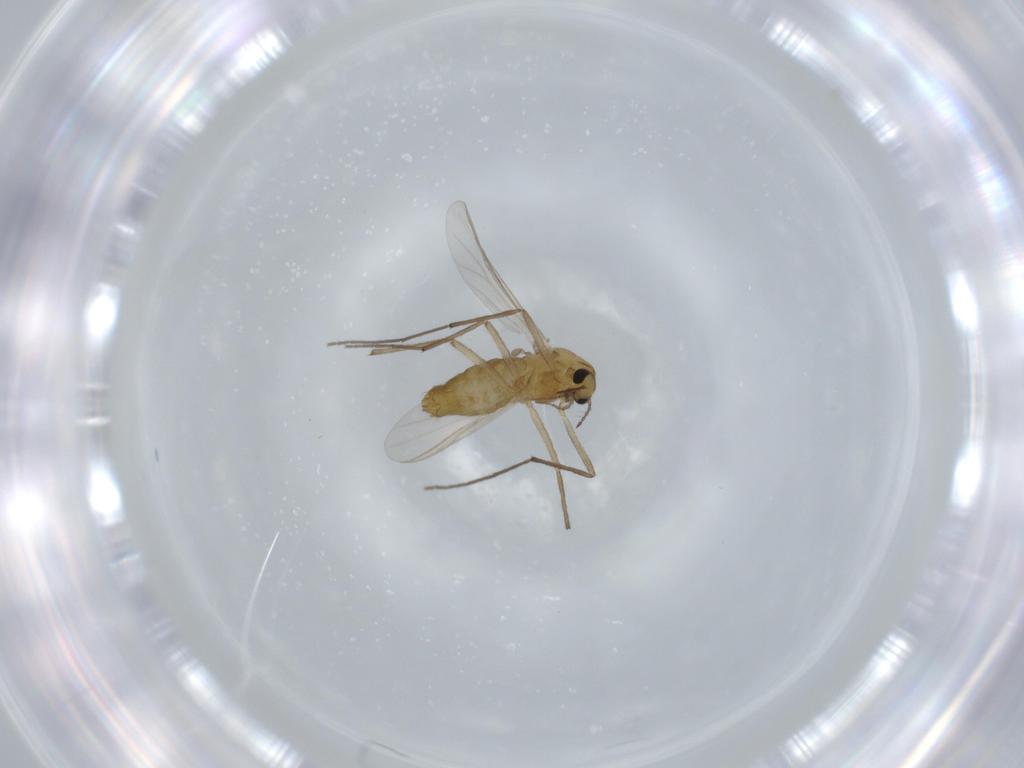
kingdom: Animalia
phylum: Arthropoda
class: Insecta
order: Diptera
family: Chironomidae
